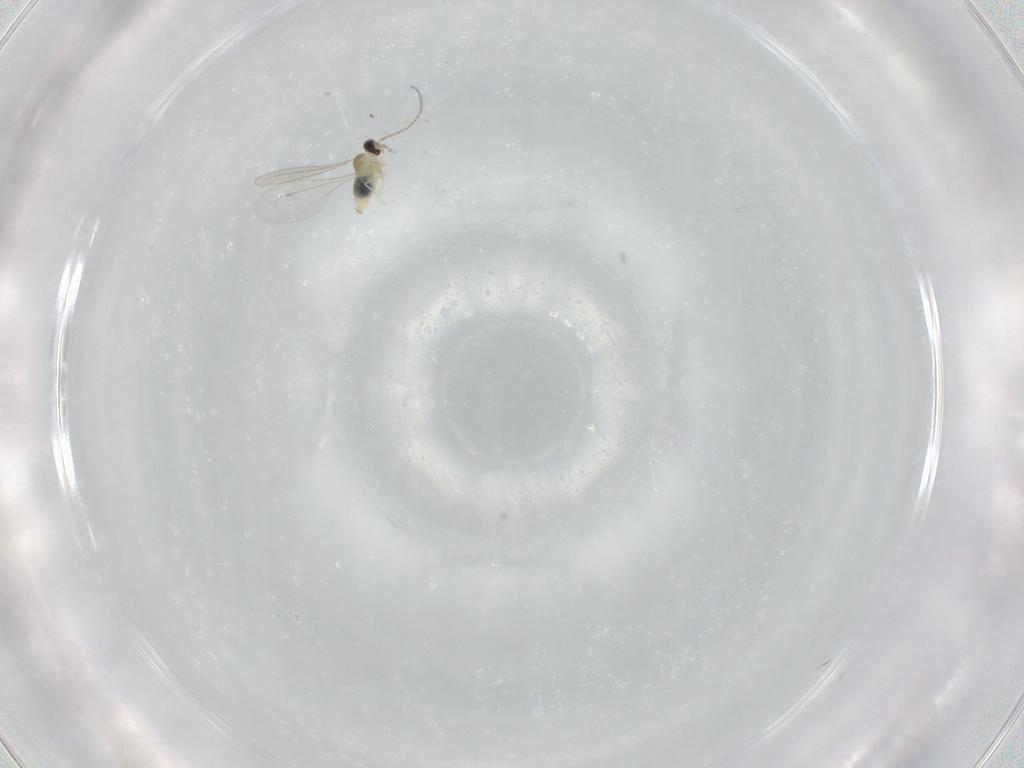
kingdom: Animalia
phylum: Arthropoda
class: Insecta
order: Diptera
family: Cecidomyiidae
